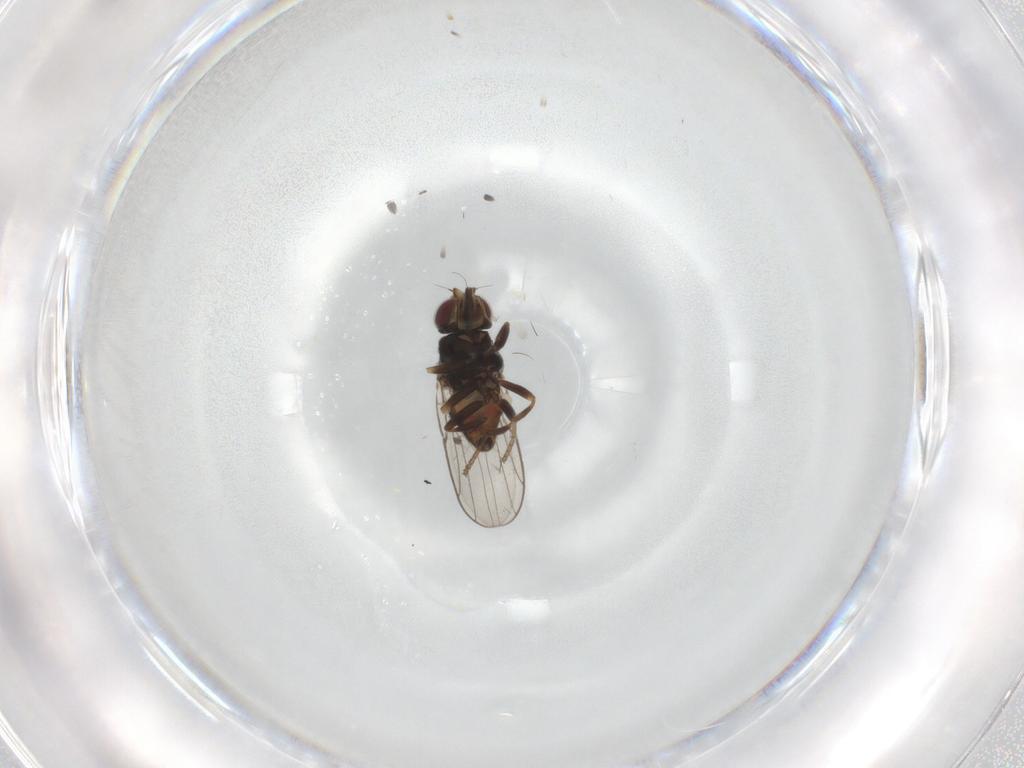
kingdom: Animalia
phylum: Arthropoda
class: Insecta
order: Diptera
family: Chloropidae
